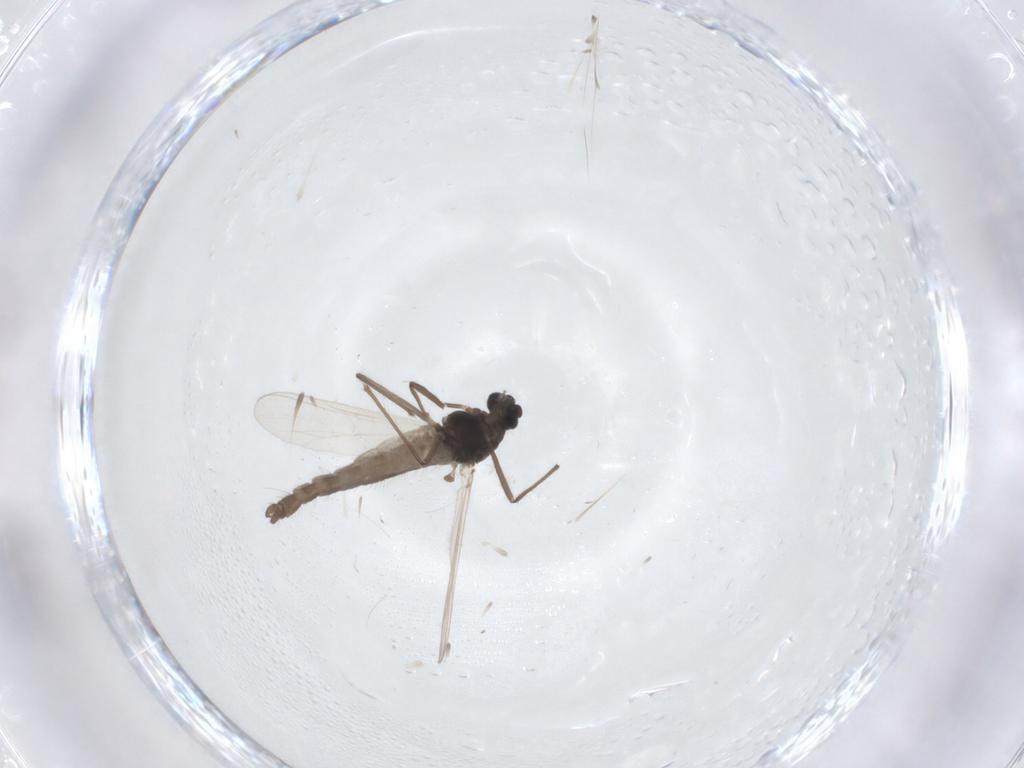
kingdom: Animalia
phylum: Arthropoda
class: Insecta
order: Diptera
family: Chironomidae
